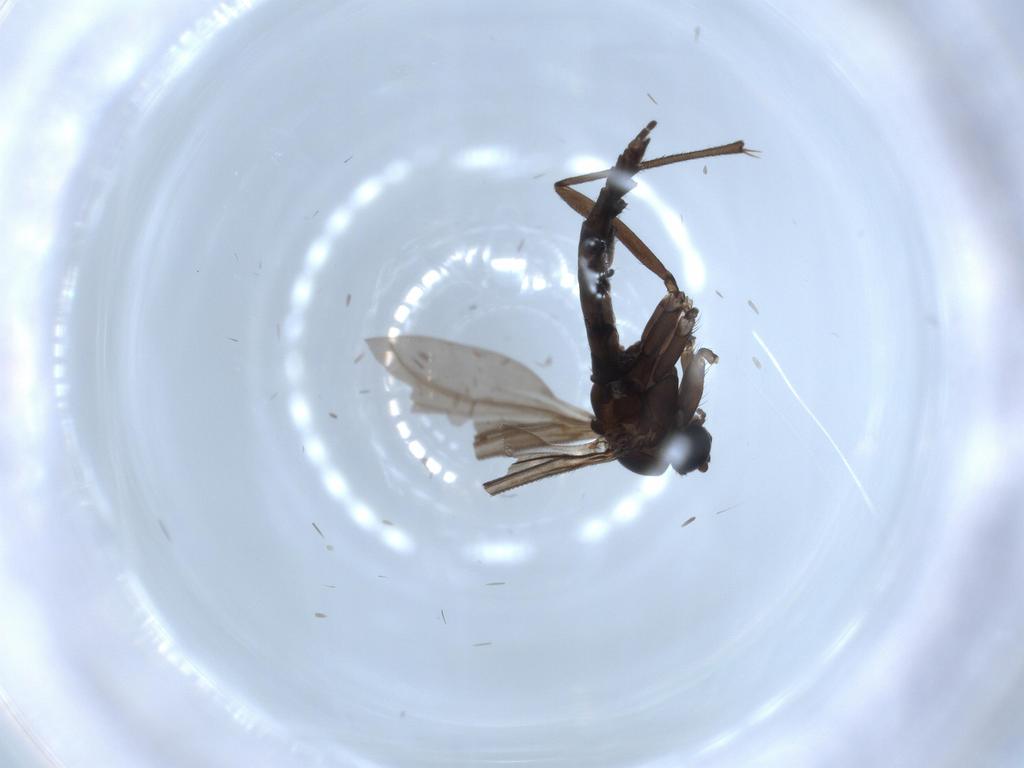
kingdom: Animalia
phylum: Arthropoda
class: Insecta
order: Diptera
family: Sciaridae
